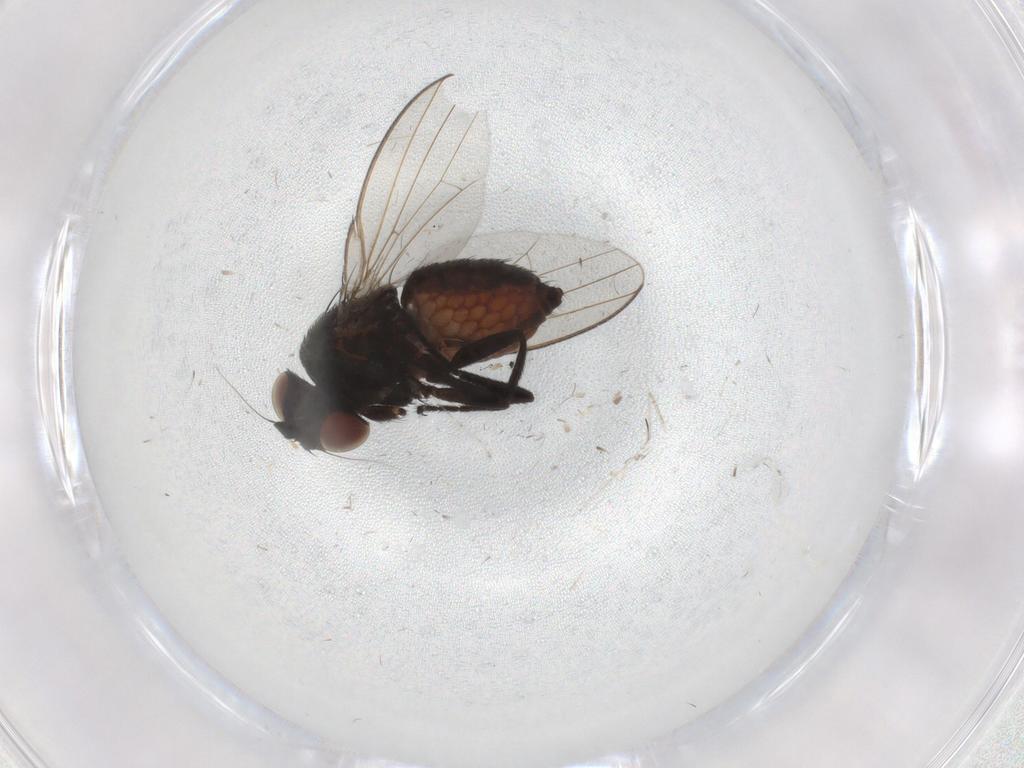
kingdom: Animalia
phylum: Arthropoda
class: Insecta
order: Diptera
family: Milichiidae
